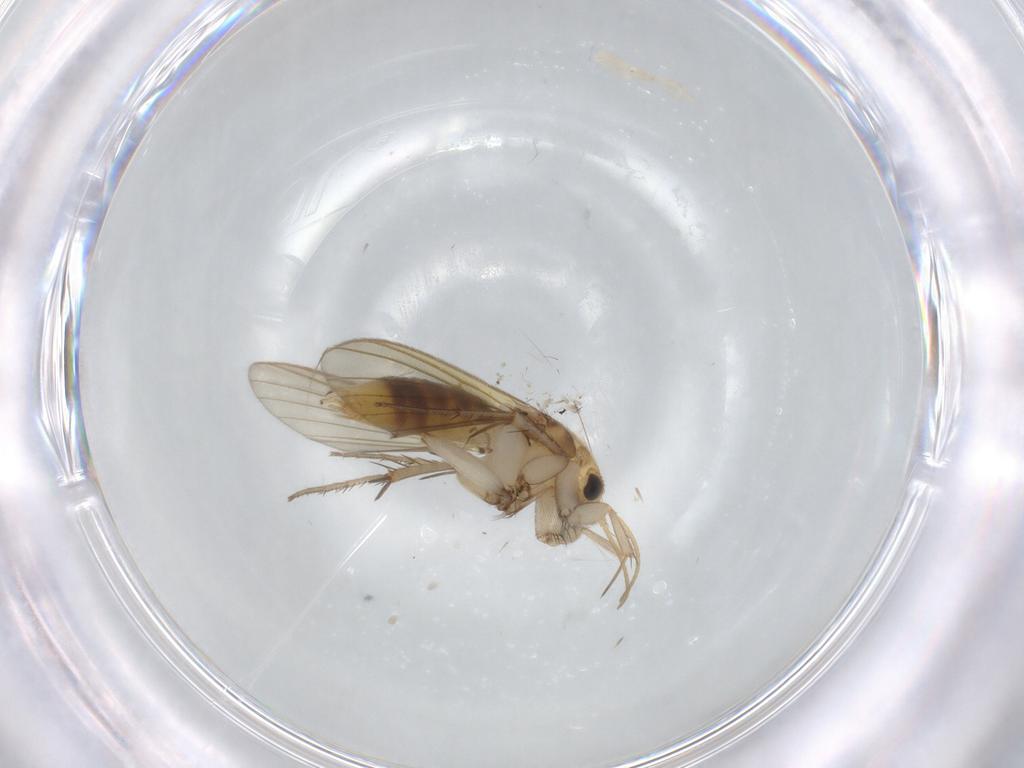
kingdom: Animalia
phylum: Arthropoda
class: Insecta
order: Diptera
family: Mycetophilidae
